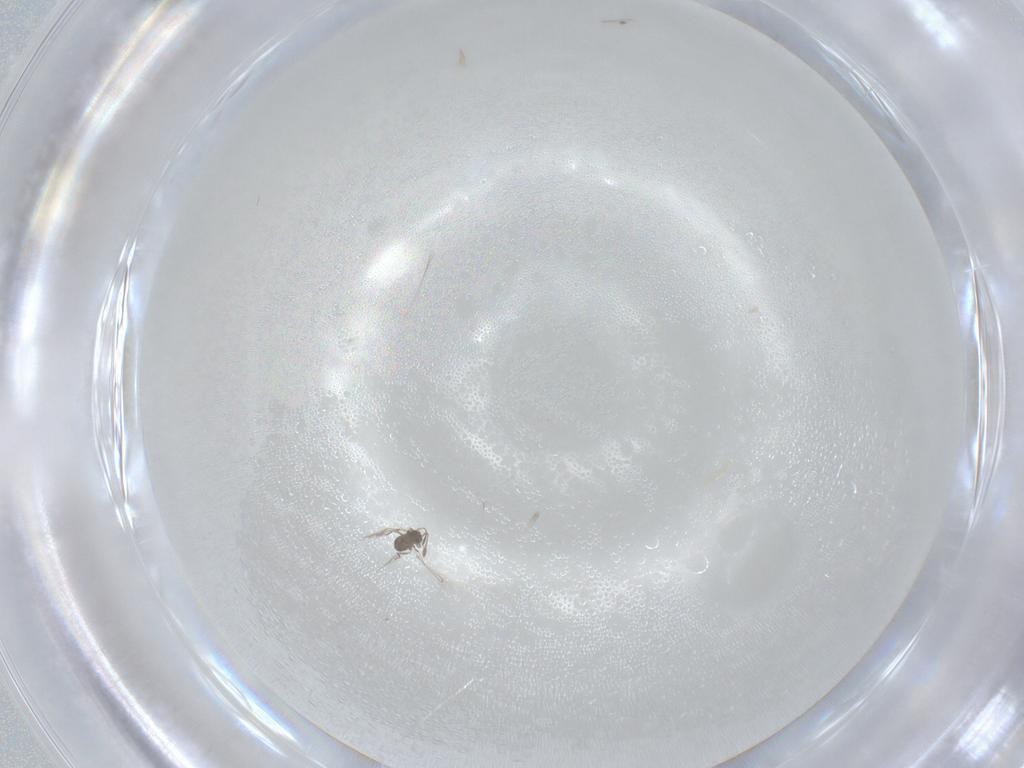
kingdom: Animalia
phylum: Arthropoda
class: Insecta
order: Hymenoptera
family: Mymaridae
